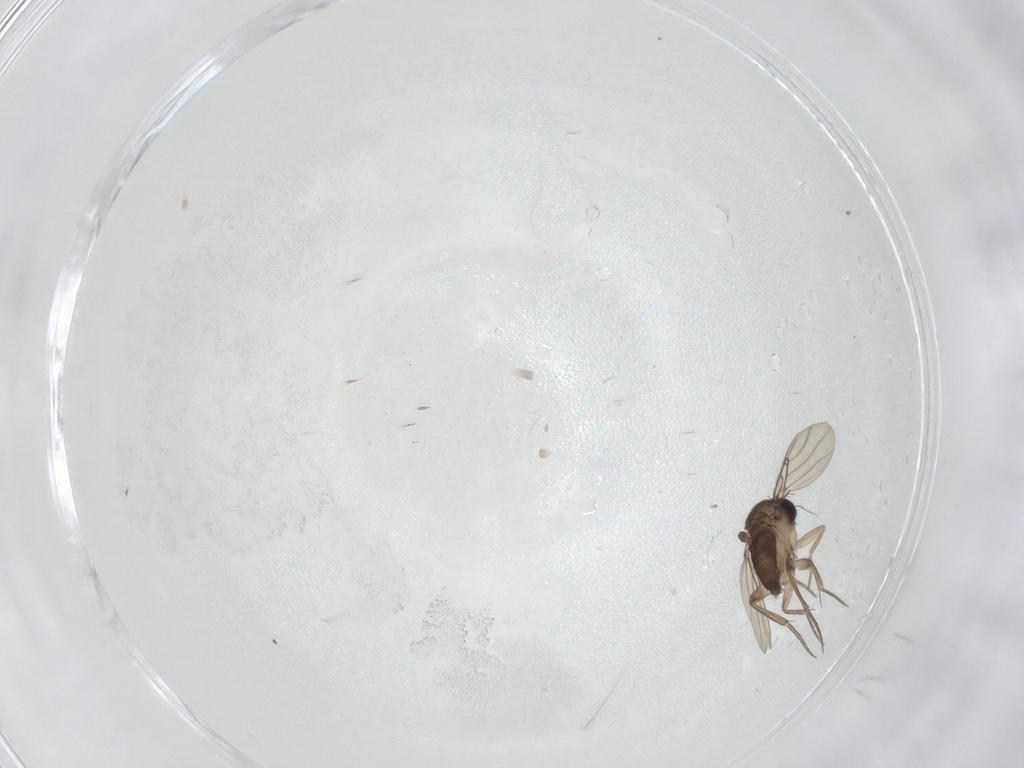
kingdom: Animalia
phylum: Arthropoda
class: Insecta
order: Diptera
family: Phoridae
